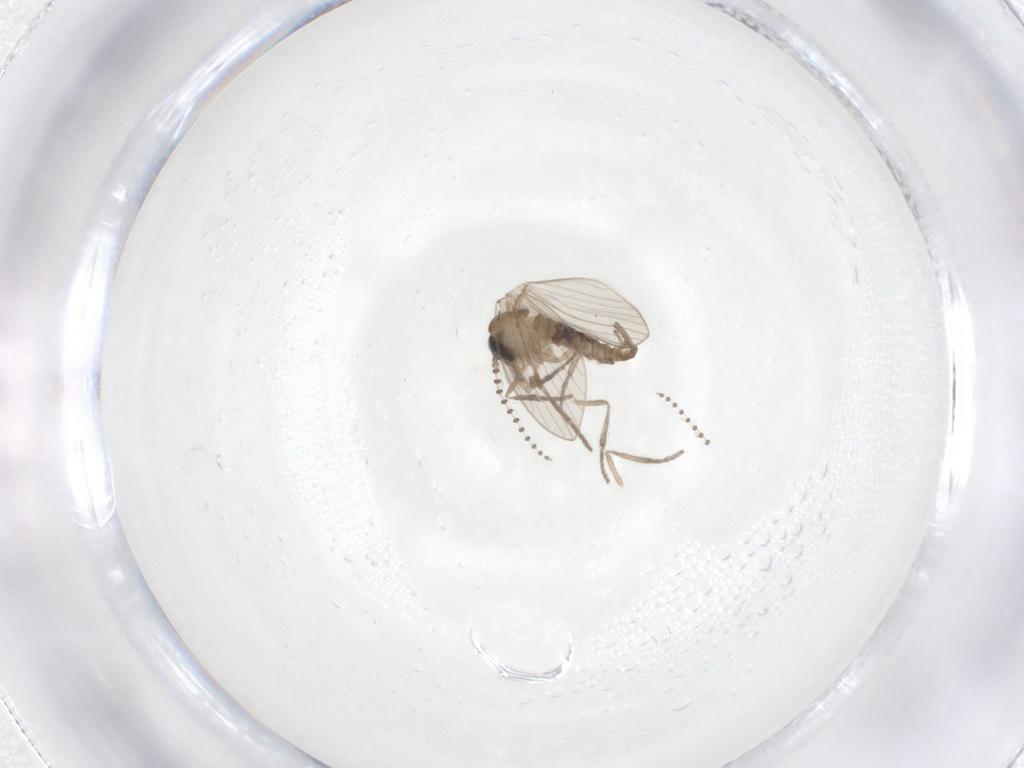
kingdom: Animalia
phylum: Arthropoda
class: Insecta
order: Diptera
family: Psychodidae
